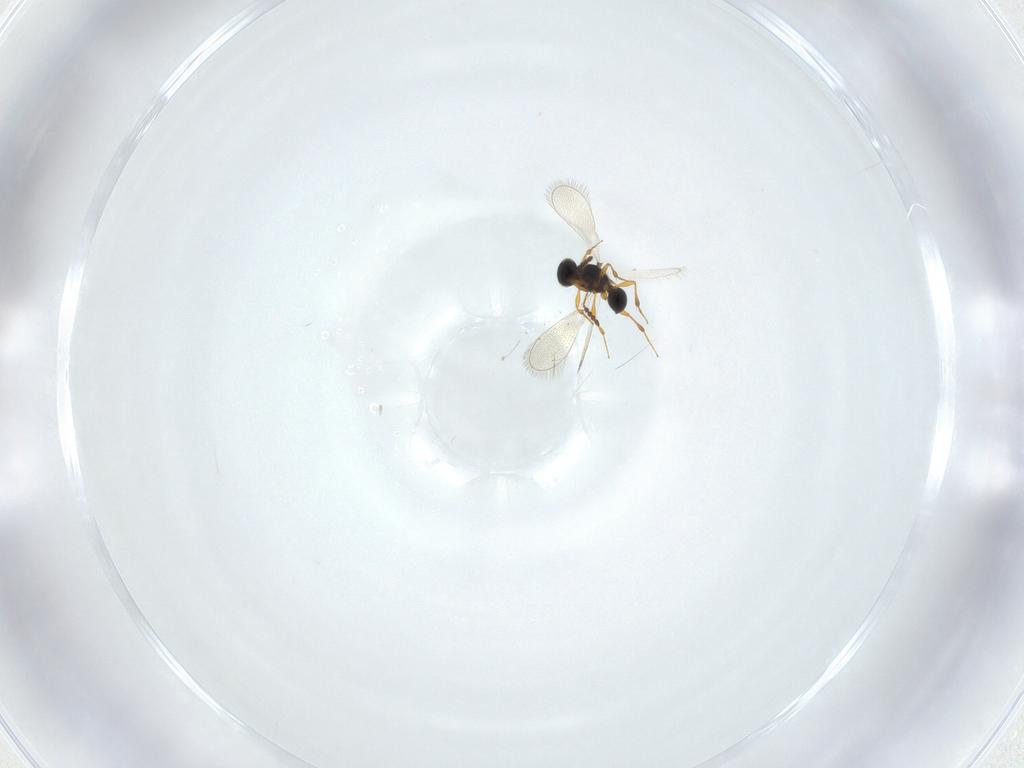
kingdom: Animalia
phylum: Arthropoda
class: Insecta
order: Hymenoptera
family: Platygastridae
